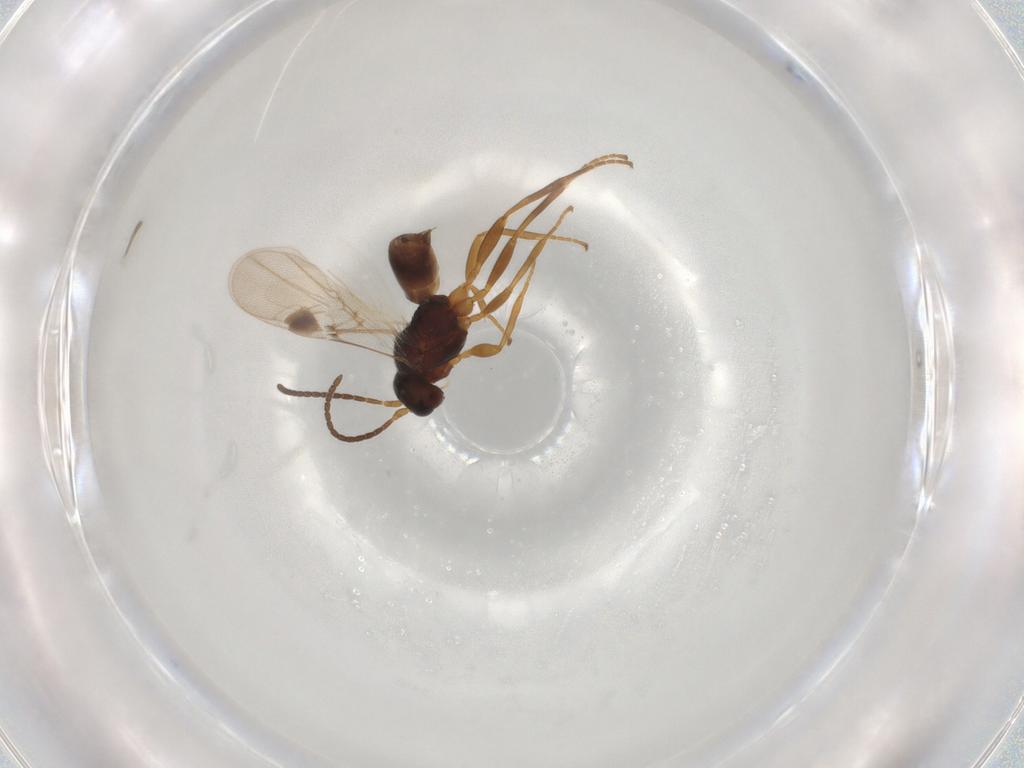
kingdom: Animalia
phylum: Arthropoda
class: Insecta
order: Hymenoptera
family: Braconidae
